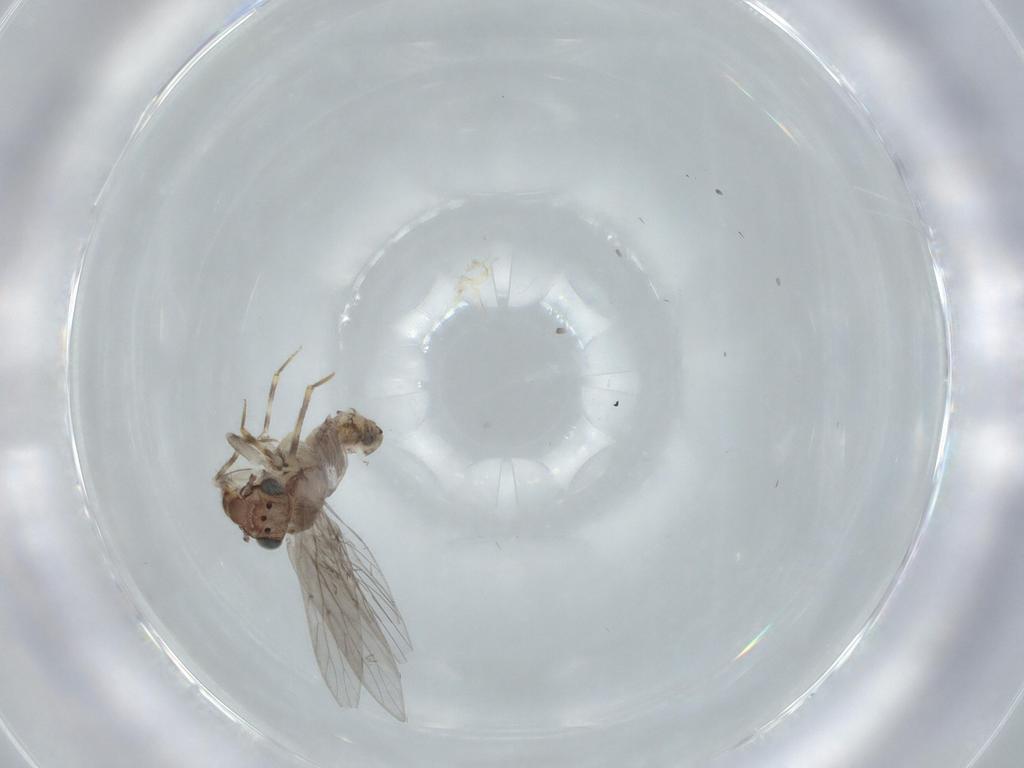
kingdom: Animalia
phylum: Arthropoda
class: Insecta
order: Psocodea
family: Lepidopsocidae
